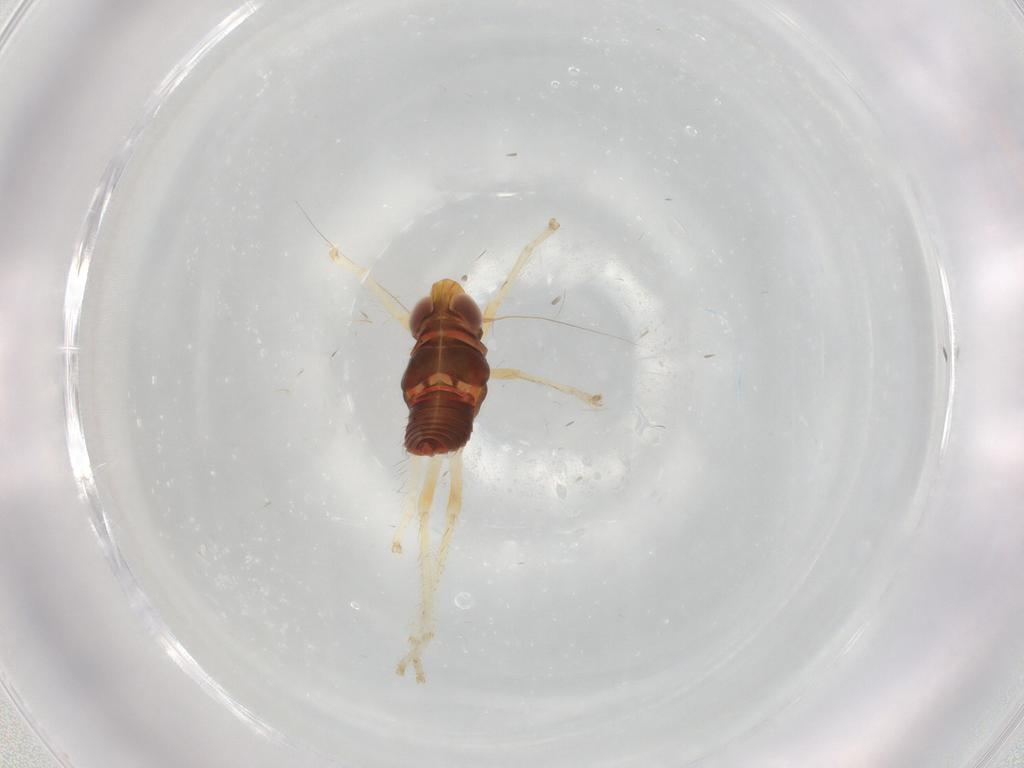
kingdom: Animalia
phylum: Arthropoda
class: Insecta
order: Hemiptera
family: Cicadellidae
